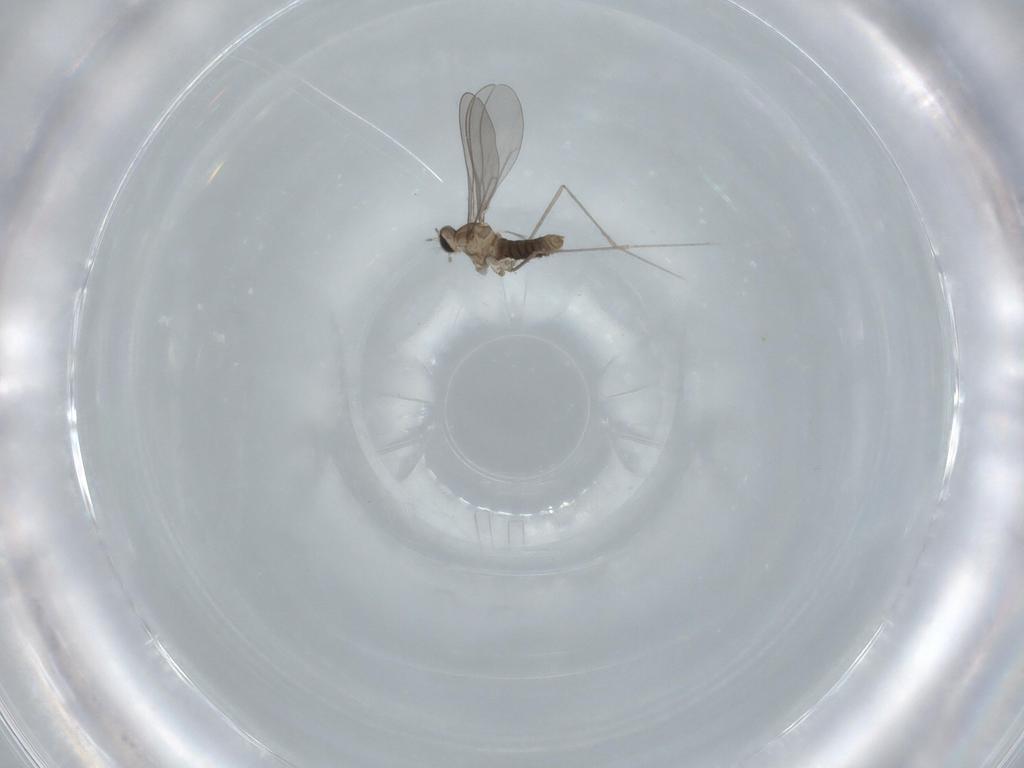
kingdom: Animalia
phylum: Arthropoda
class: Insecta
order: Diptera
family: Cecidomyiidae
